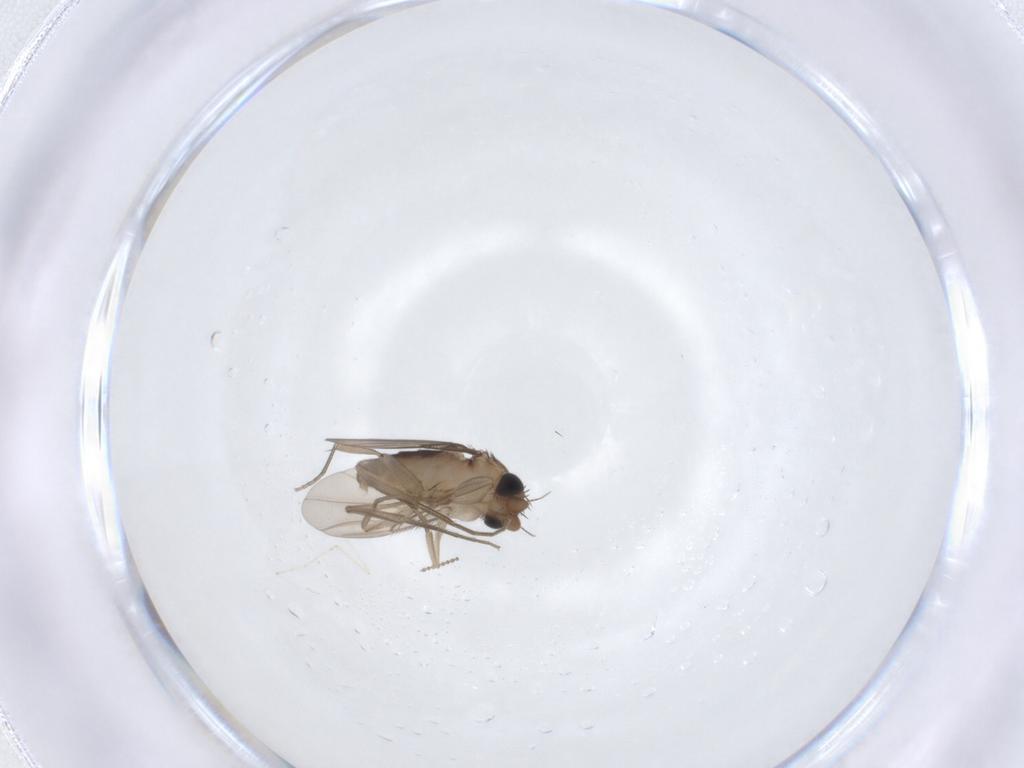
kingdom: Animalia
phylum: Arthropoda
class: Insecta
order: Diptera
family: Phoridae
